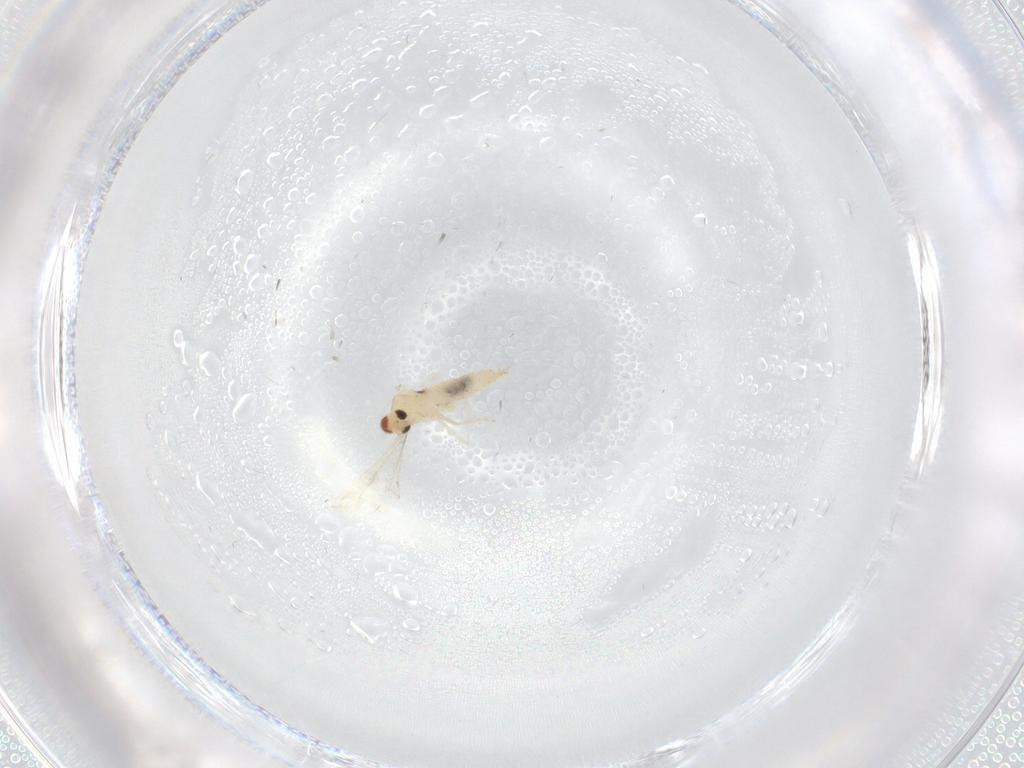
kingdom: Animalia
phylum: Arthropoda
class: Insecta
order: Diptera
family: Cecidomyiidae
